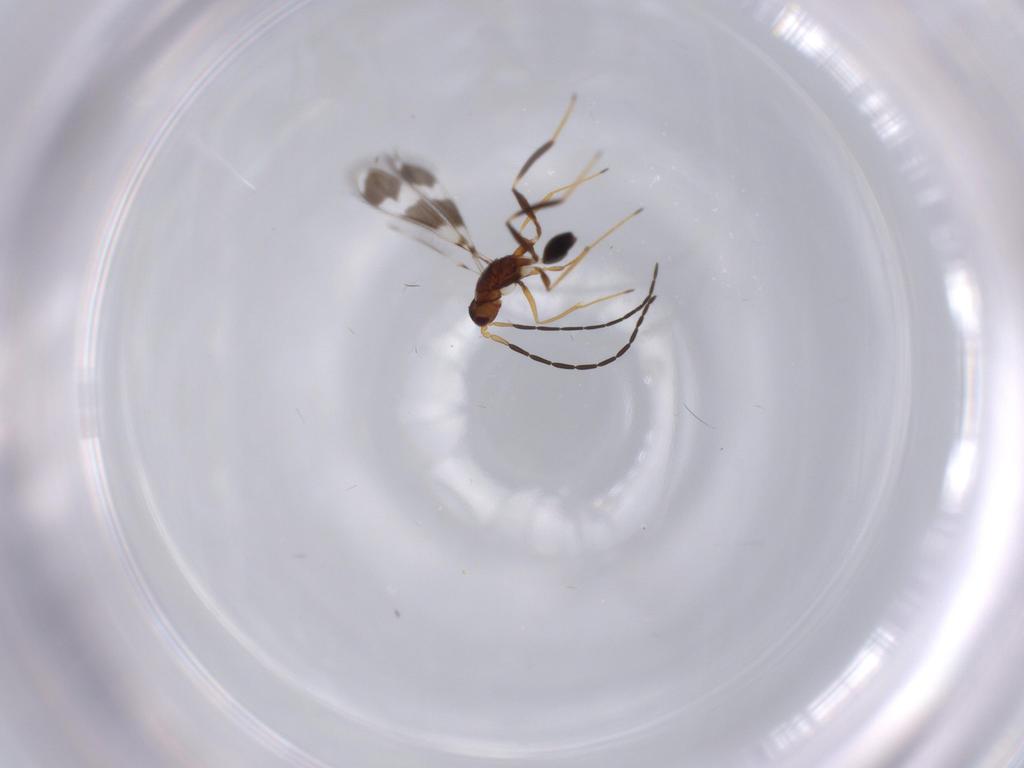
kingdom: Animalia
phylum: Arthropoda
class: Insecta
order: Hymenoptera
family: Mymaridae
